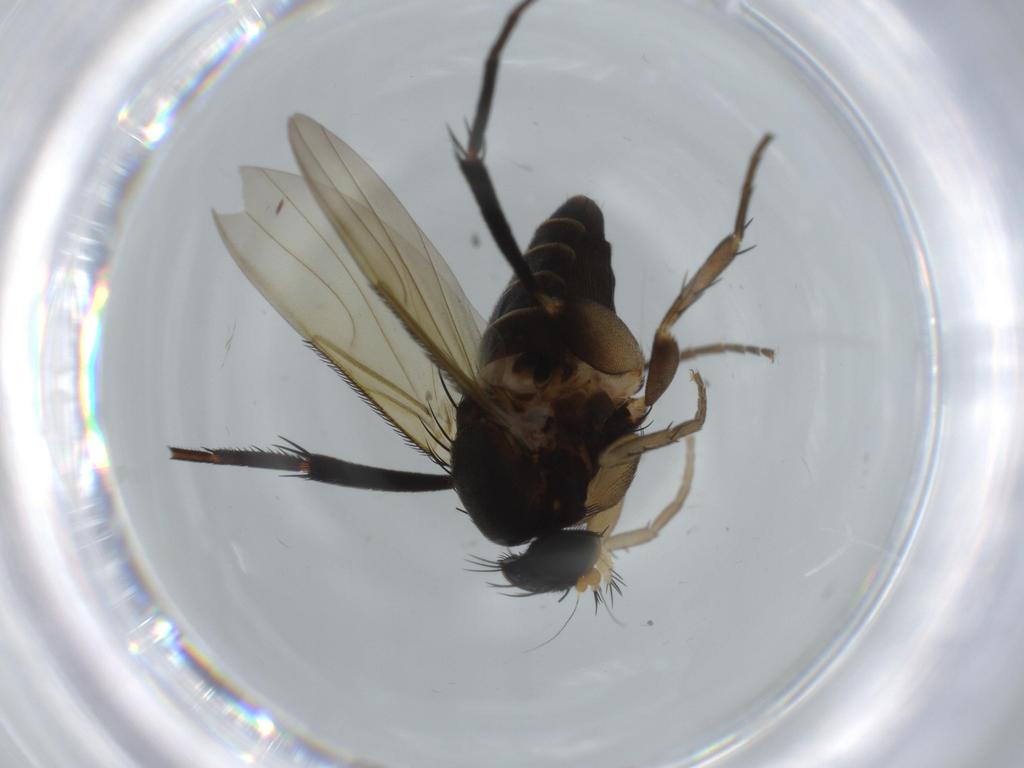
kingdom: Animalia
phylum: Arthropoda
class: Insecta
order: Diptera
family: Phoridae
